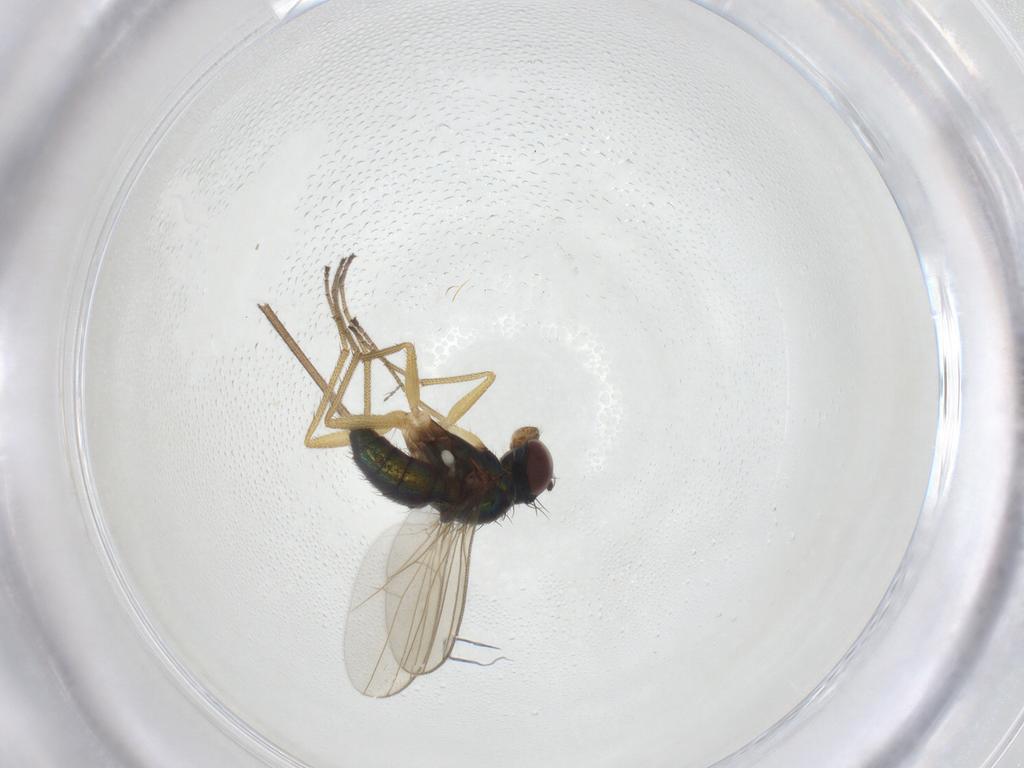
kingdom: Animalia
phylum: Arthropoda
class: Insecta
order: Diptera
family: Dolichopodidae
